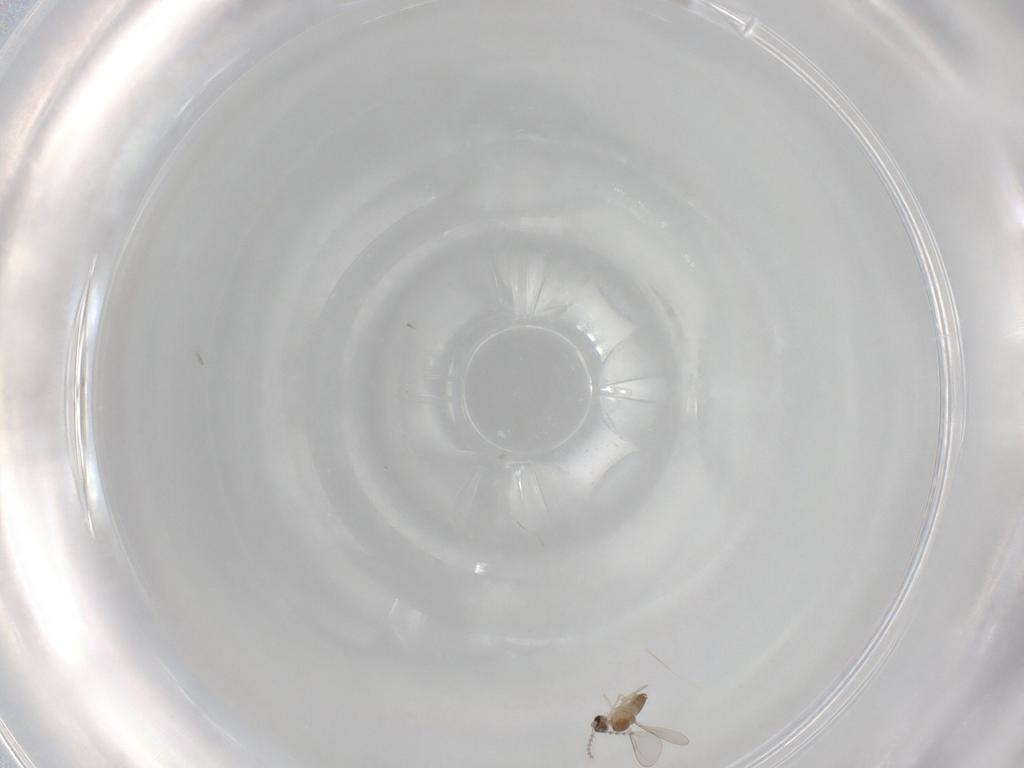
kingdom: Animalia
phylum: Arthropoda
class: Insecta
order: Diptera
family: Cecidomyiidae
